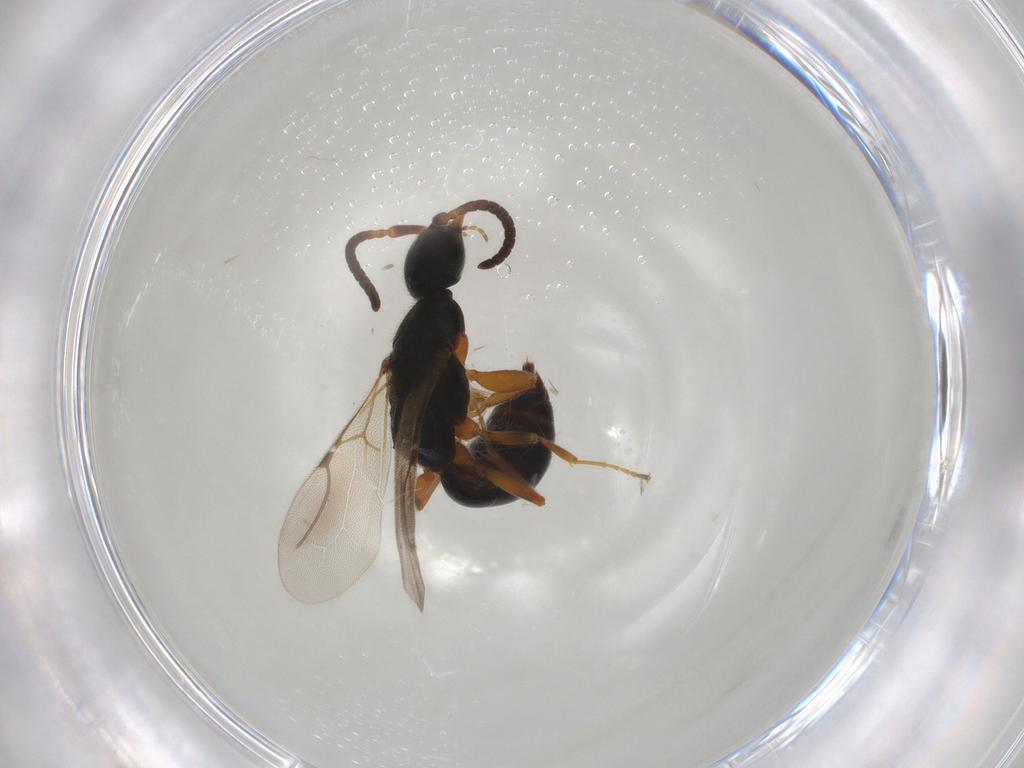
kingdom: Animalia
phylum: Arthropoda
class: Insecta
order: Hymenoptera
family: Bethylidae
